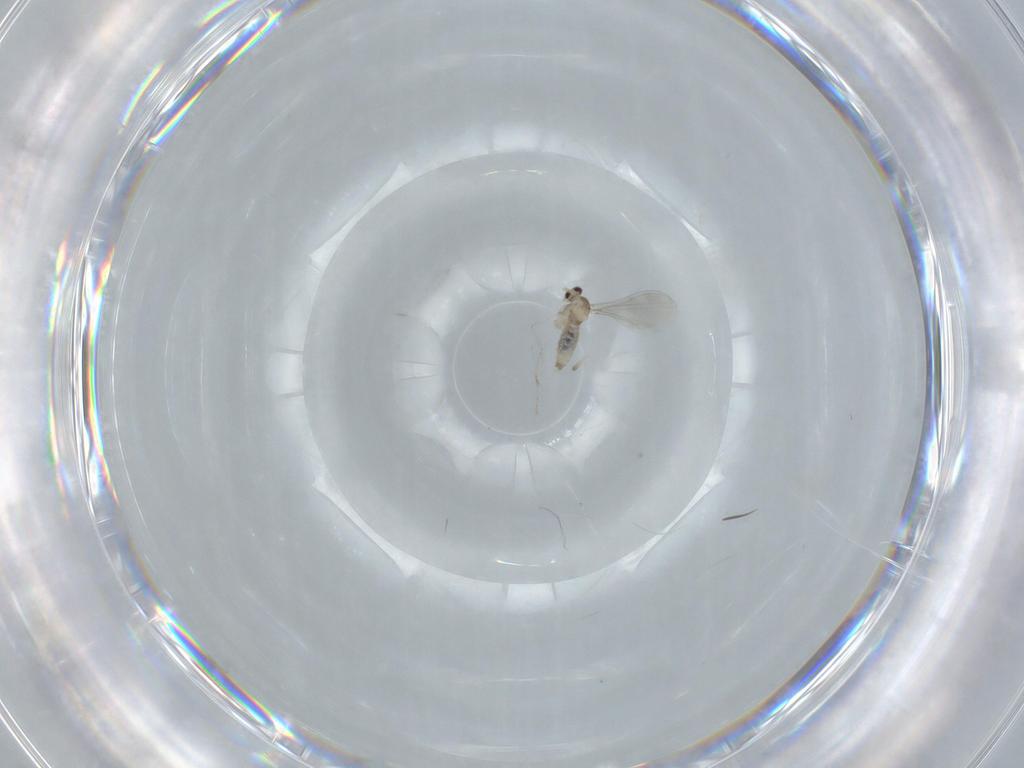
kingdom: Animalia
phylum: Arthropoda
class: Insecta
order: Diptera
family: Cecidomyiidae
